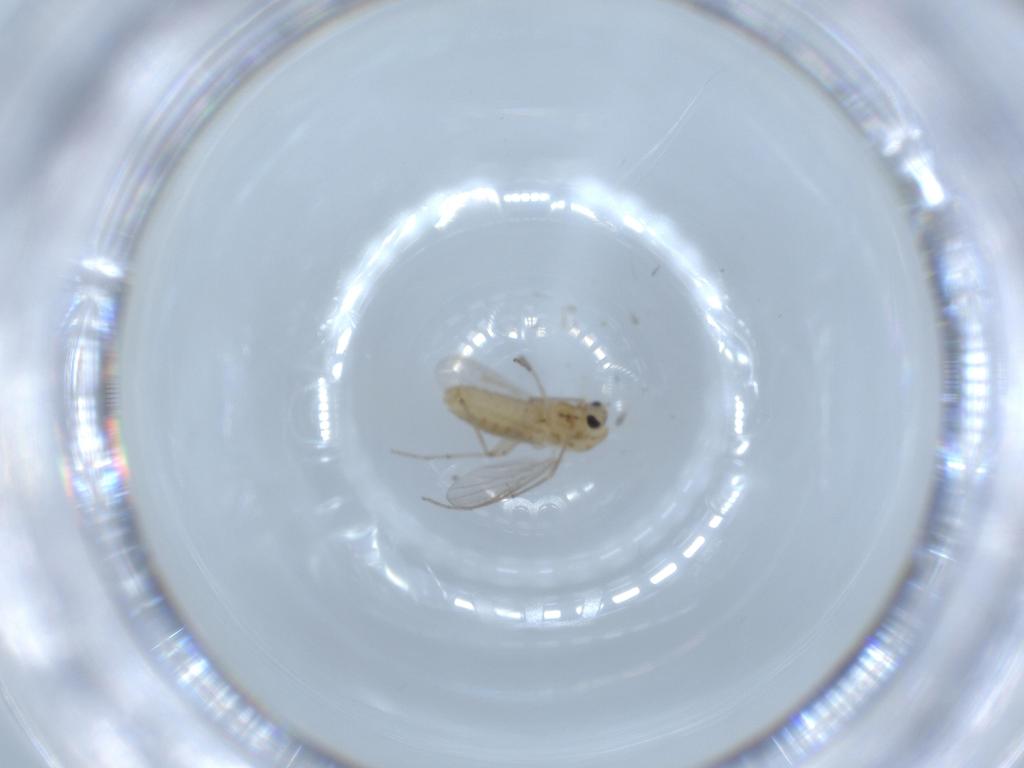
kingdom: Animalia
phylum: Arthropoda
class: Insecta
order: Diptera
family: Chironomidae
